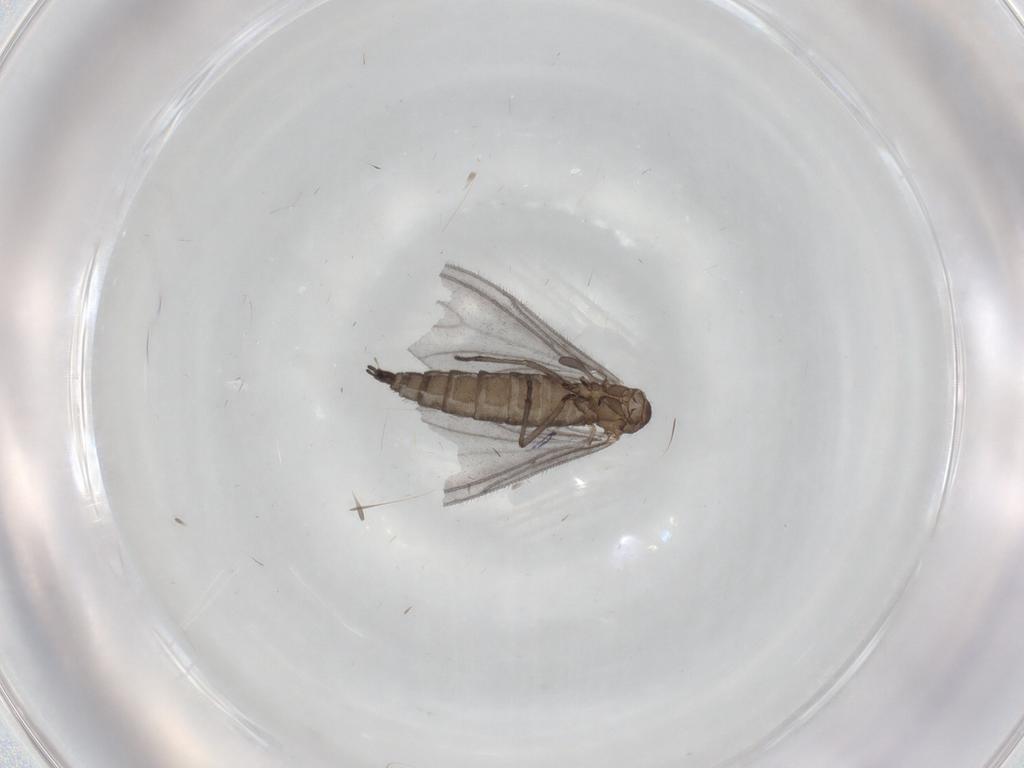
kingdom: Animalia
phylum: Arthropoda
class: Insecta
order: Diptera
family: Sciaridae
